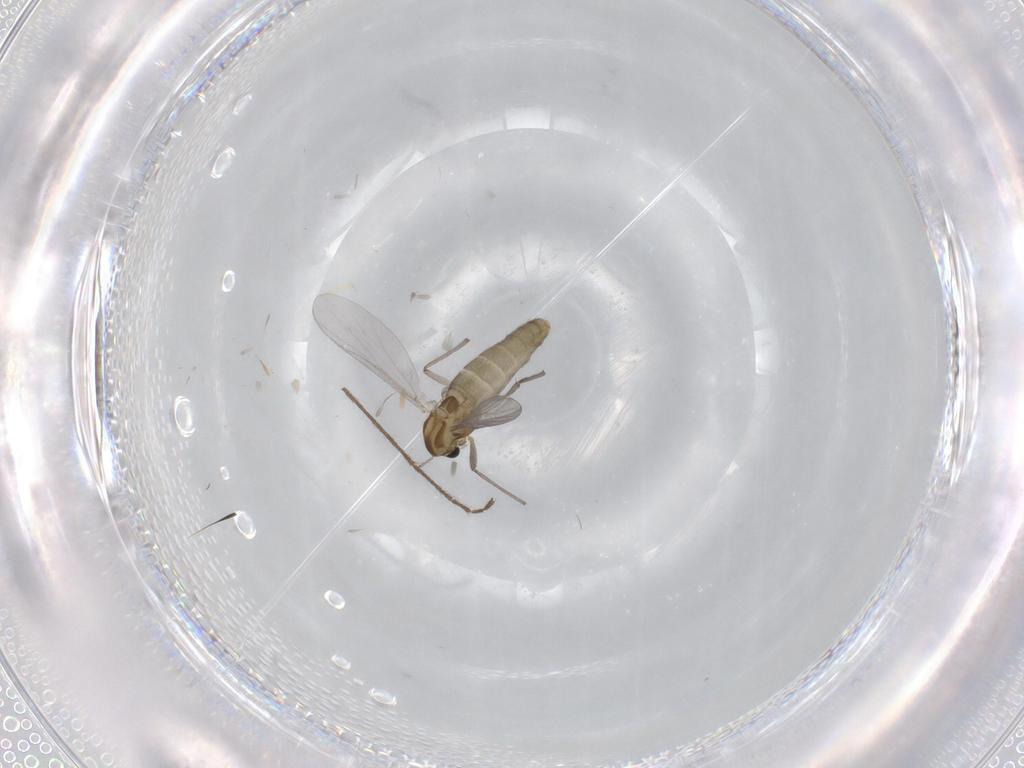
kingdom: Animalia
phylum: Arthropoda
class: Insecta
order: Diptera
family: Chironomidae
